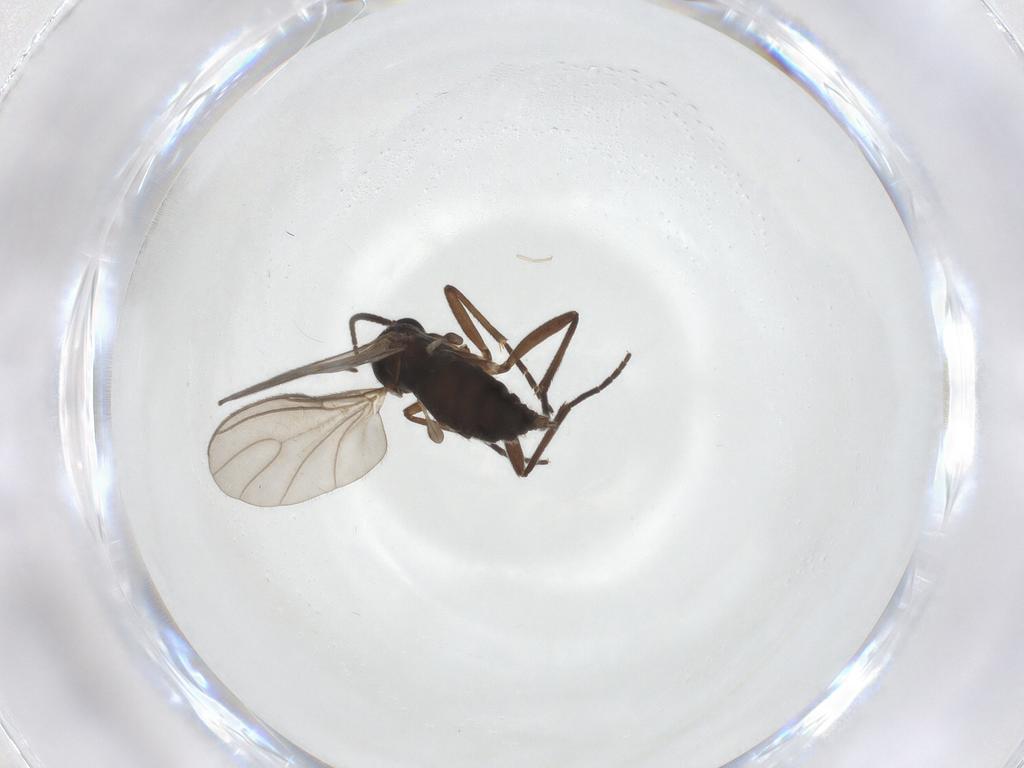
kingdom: Animalia
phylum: Arthropoda
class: Insecta
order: Diptera
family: Sciaridae
